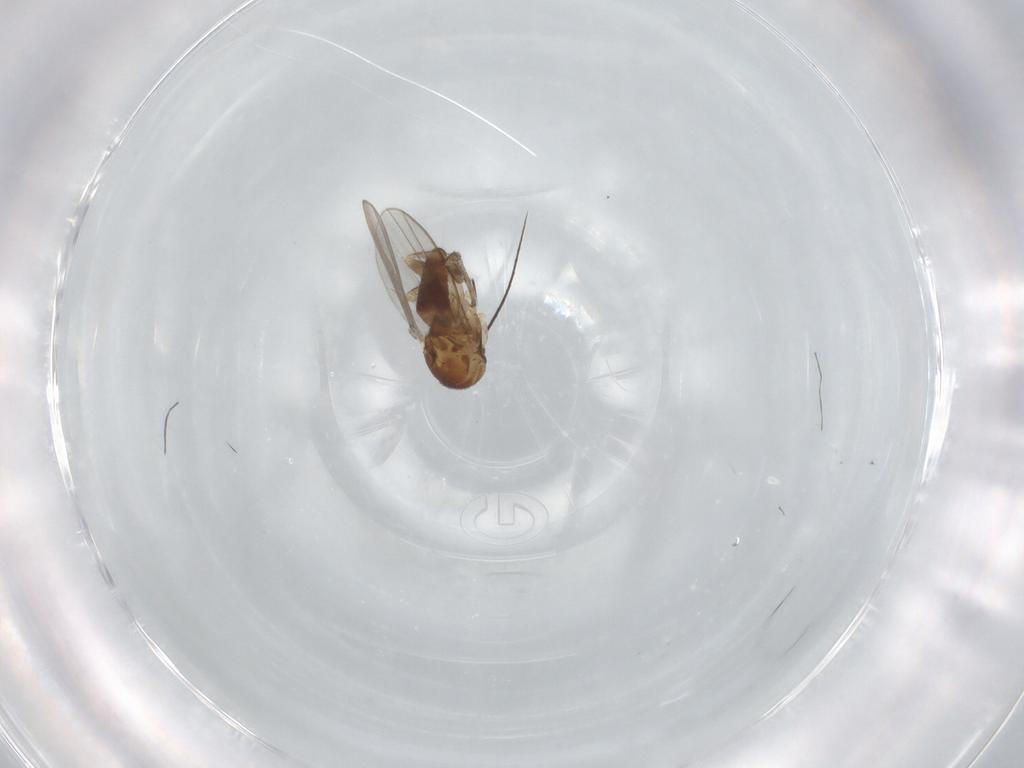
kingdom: Animalia
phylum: Arthropoda
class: Insecta
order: Diptera
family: Milichiidae
